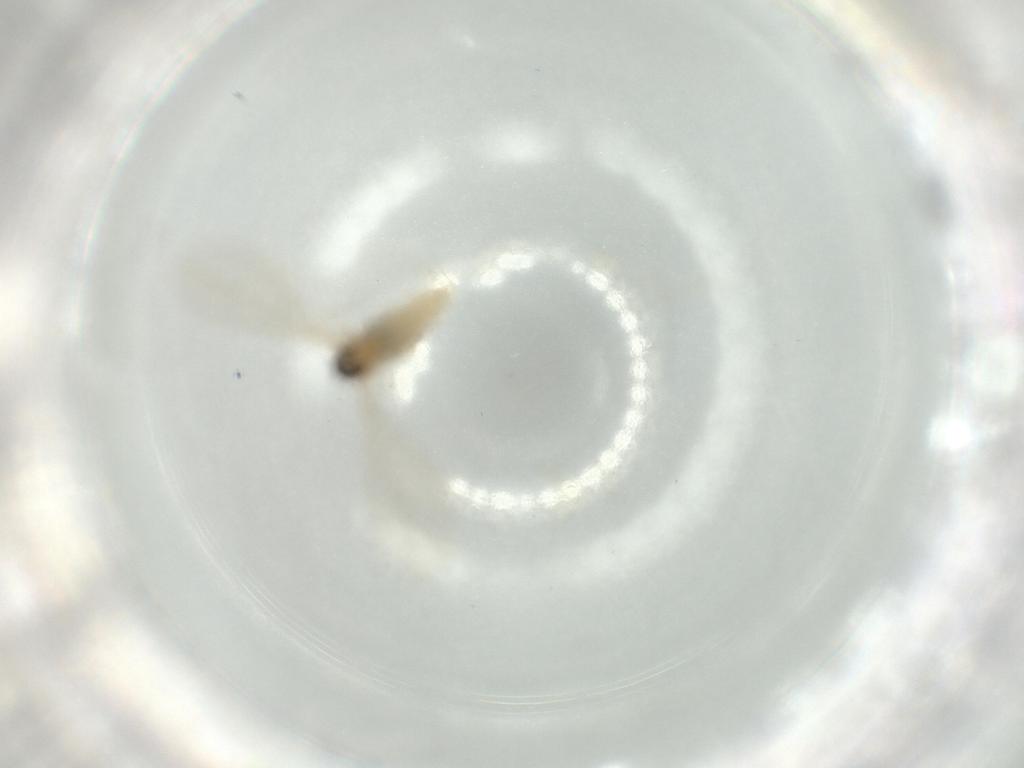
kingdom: Animalia
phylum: Arthropoda
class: Insecta
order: Diptera
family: Cecidomyiidae
